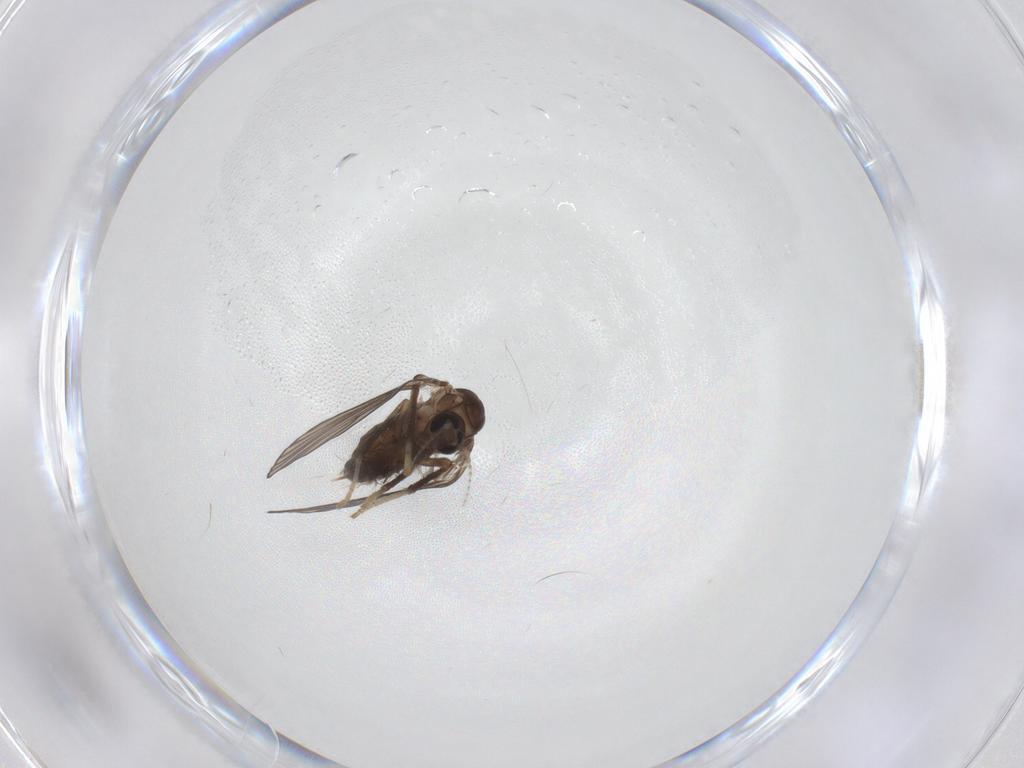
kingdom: Animalia
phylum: Arthropoda
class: Insecta
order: Diptera
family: Psychodidae
